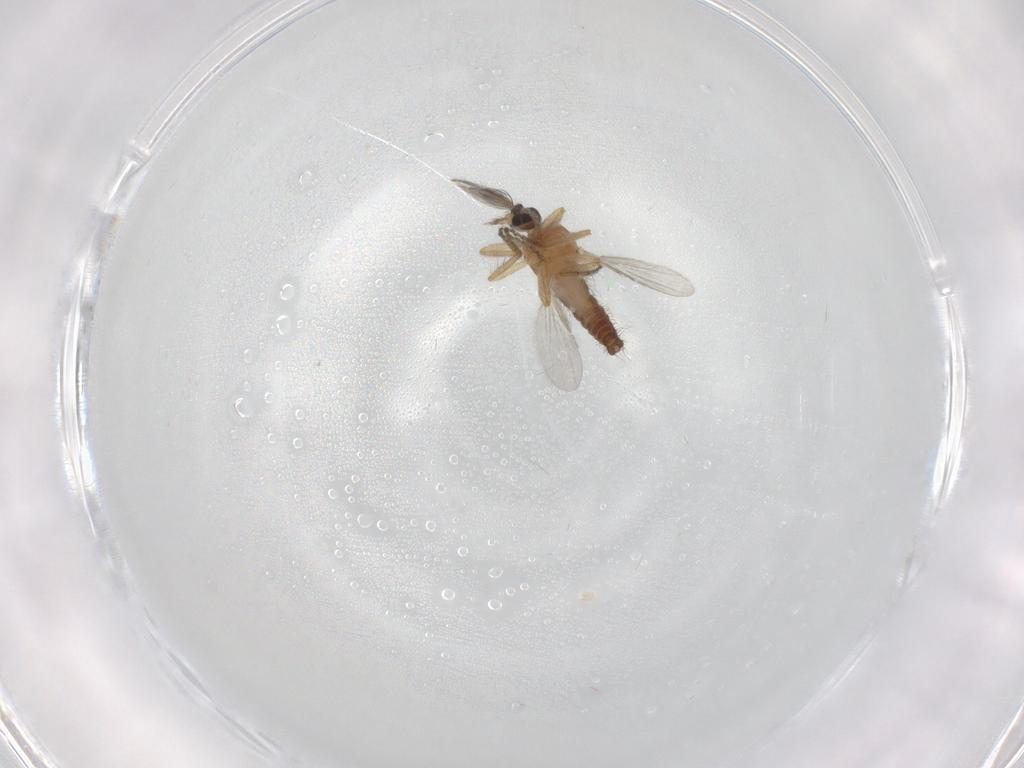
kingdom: Animalia
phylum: Arthropoda
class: Insecta
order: Diptera
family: Ceratopogonidae
